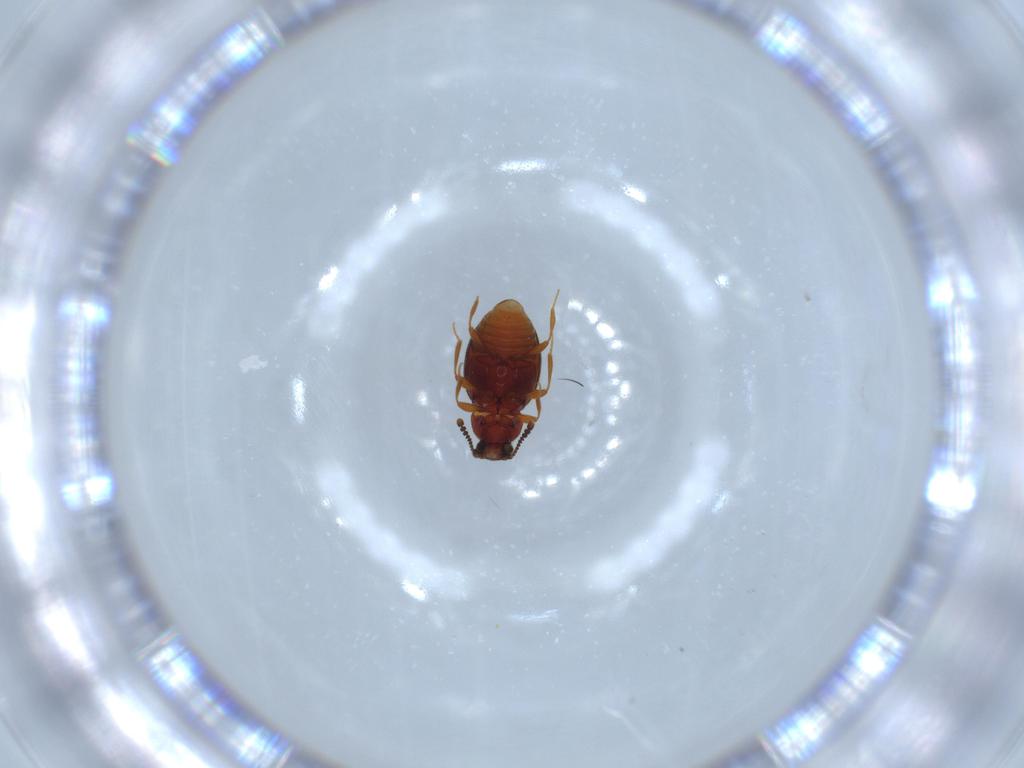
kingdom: Animalia
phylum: Arthropoda
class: Insecta
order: Coleoptera
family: Staphylinidae
